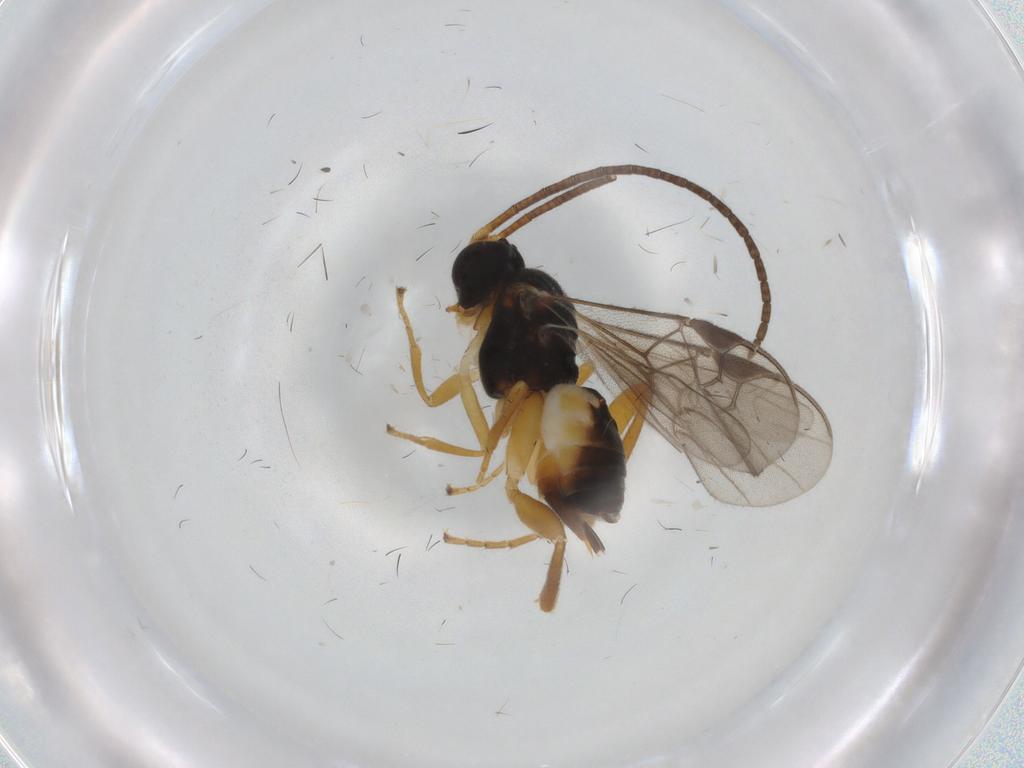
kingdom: Animalia
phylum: Arthropoda
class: Insecta
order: Hymenoptera
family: Braconidae
